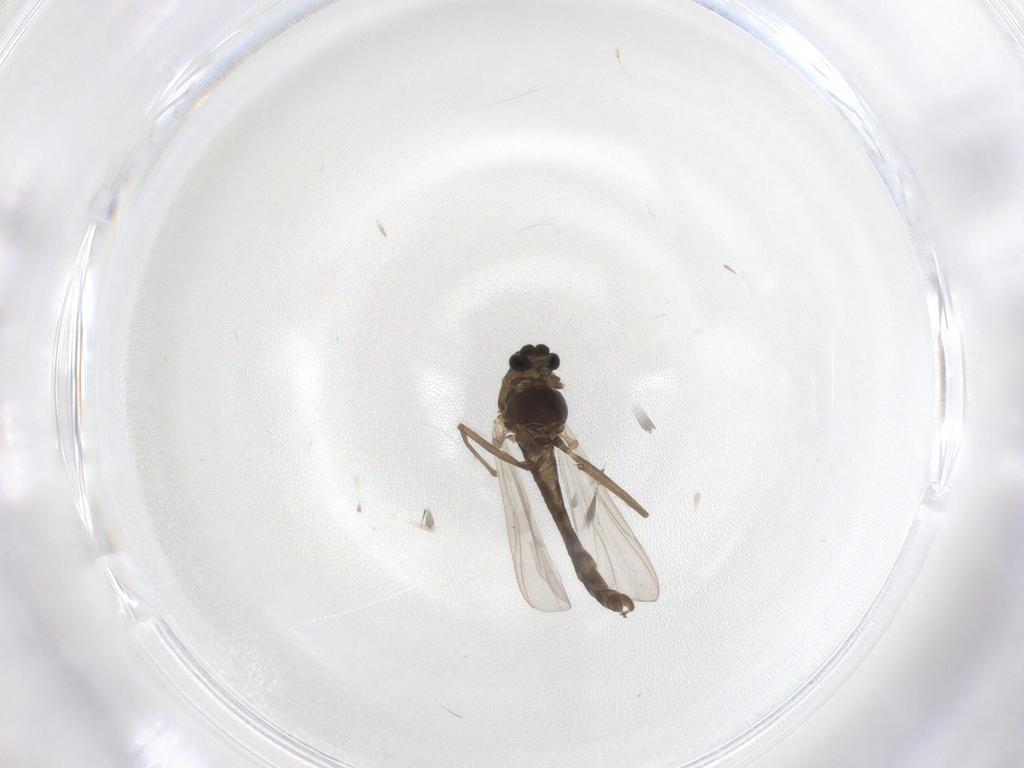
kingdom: Animalia
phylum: Arthropoda
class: Insecta
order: Diptera
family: Chironomidae
